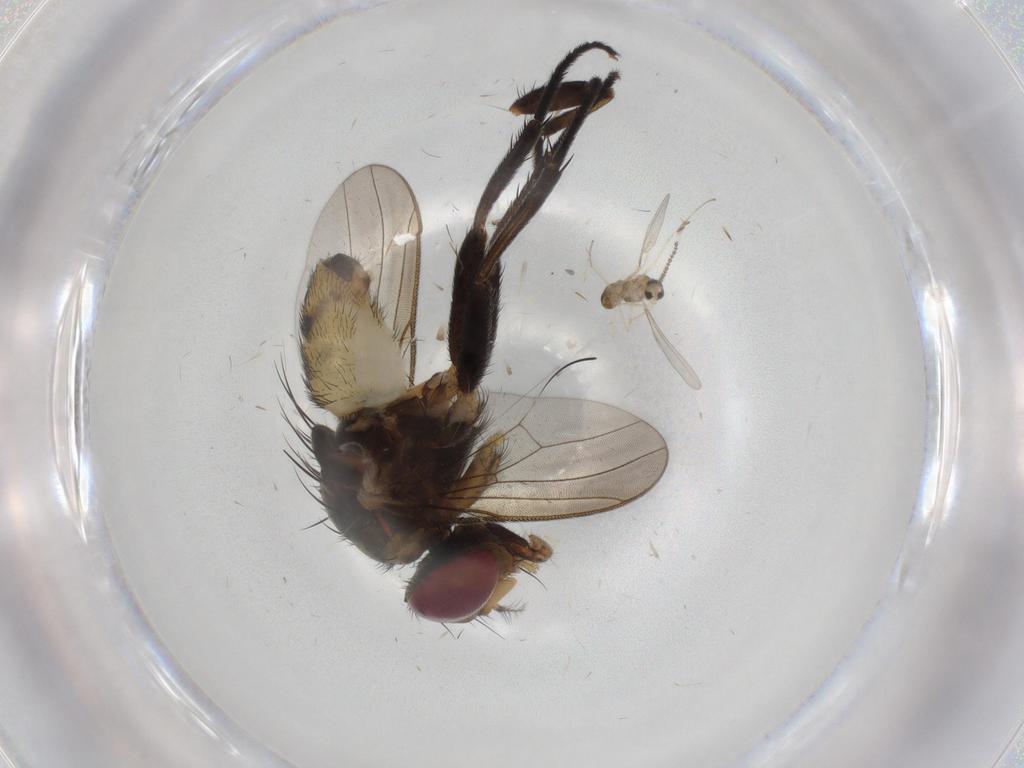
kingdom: Animalia
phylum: Arthropoda
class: Insecta
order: Diptera
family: Anthomyiidae
